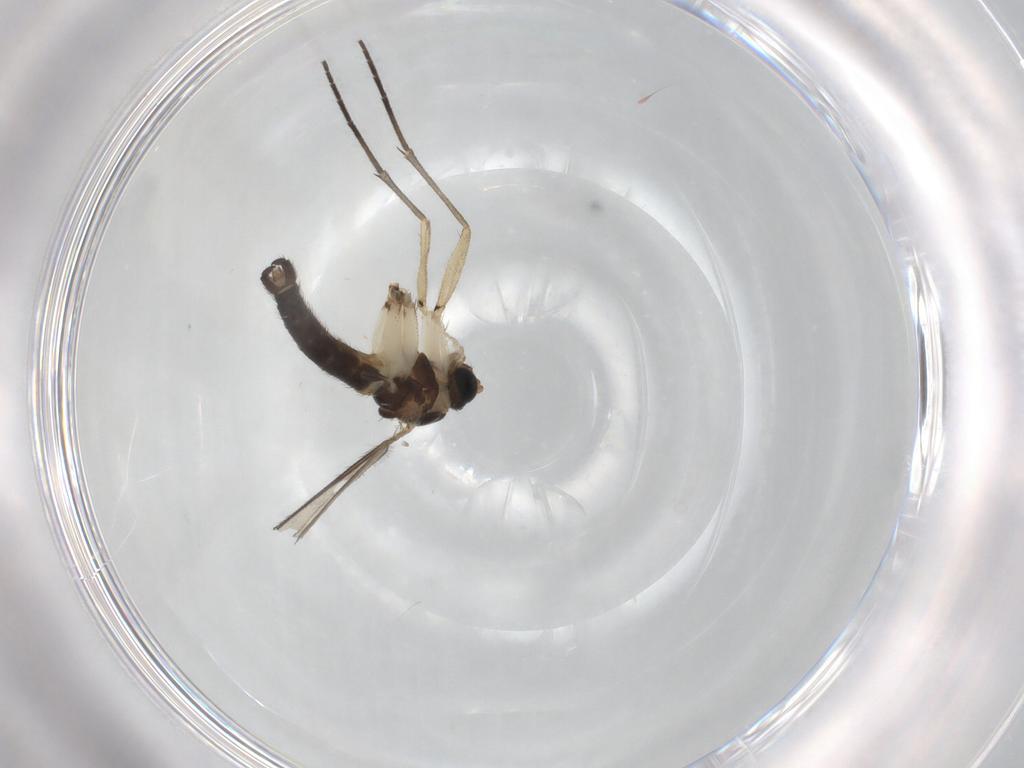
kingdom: Animalia
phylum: Arthropoda
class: Insecta
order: Diptera
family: Sciaridae
